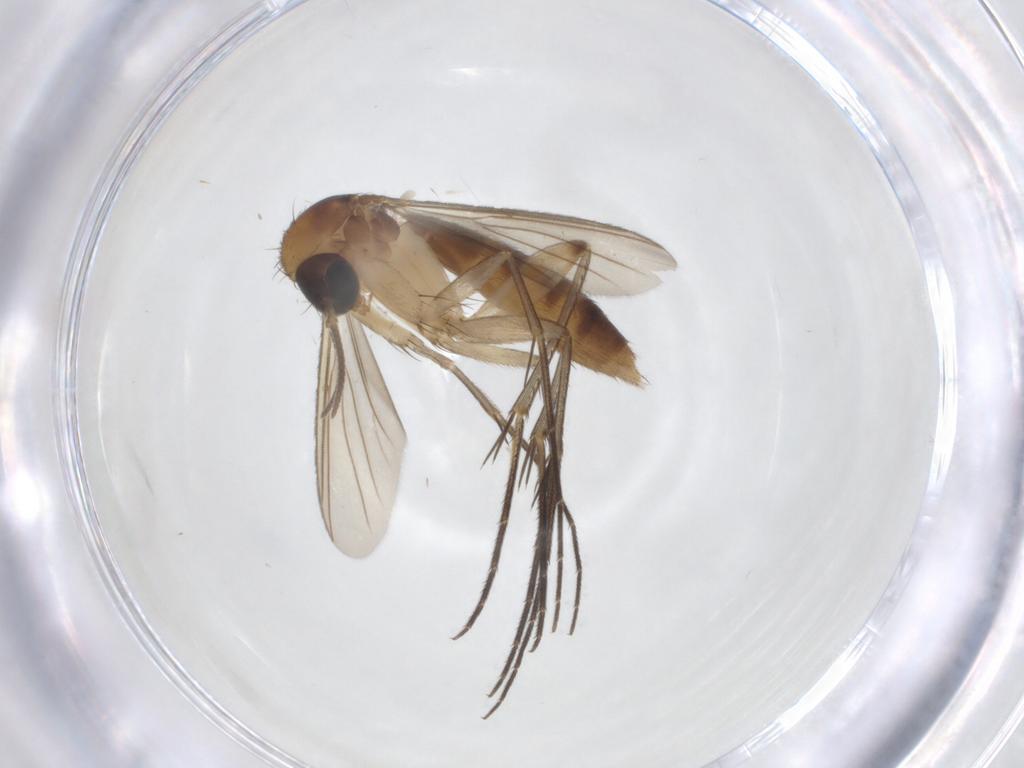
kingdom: Animalia
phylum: Arthropoda
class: Insecta
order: Diptera
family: Mycetophilidae
